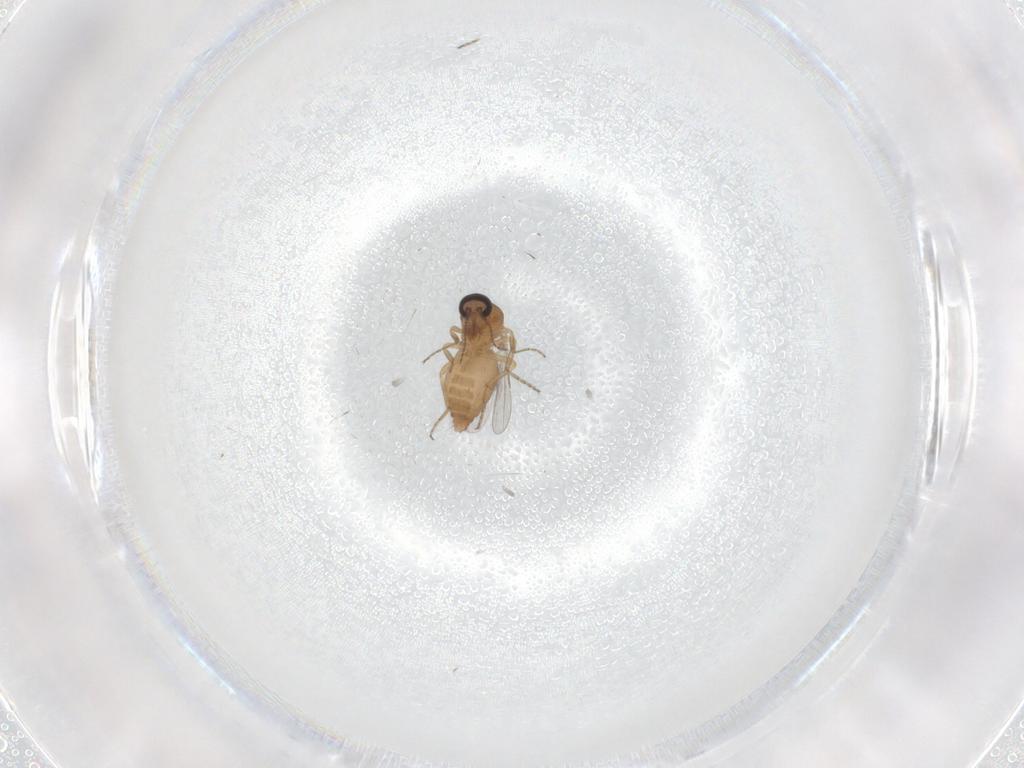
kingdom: Animalia
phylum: Arthropoda
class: Insecta
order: Diptera
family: Ceratopogonidae
